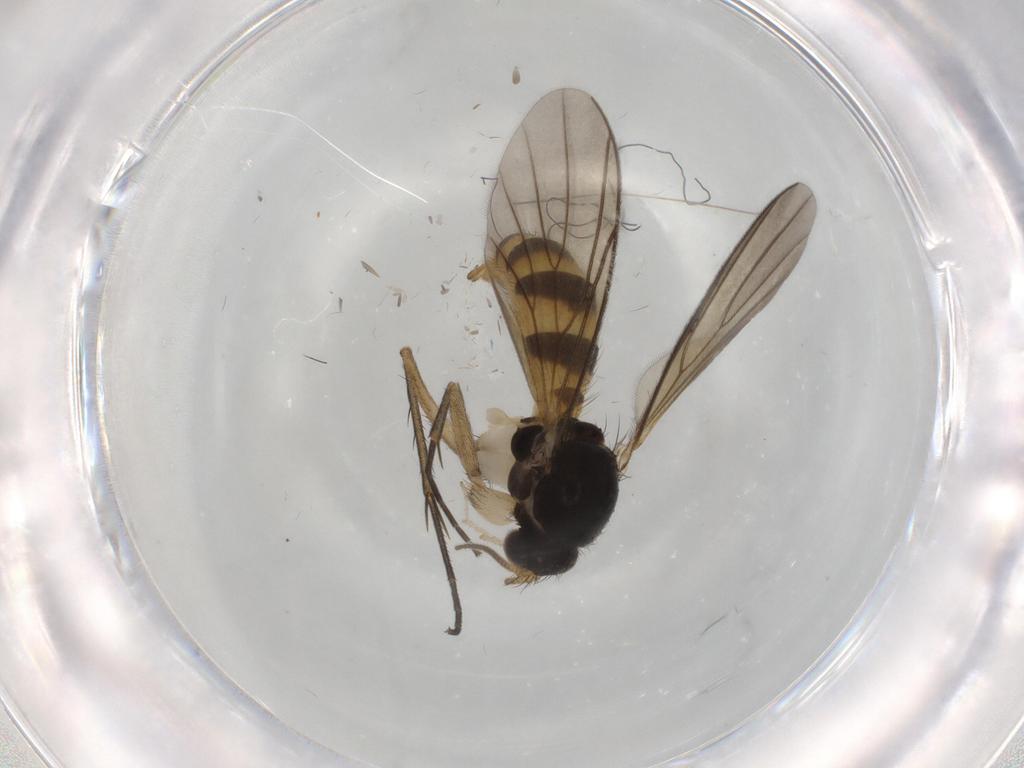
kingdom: Animalia
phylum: Arthropoda
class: Insecta
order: Diptera
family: Mycetophilidae
